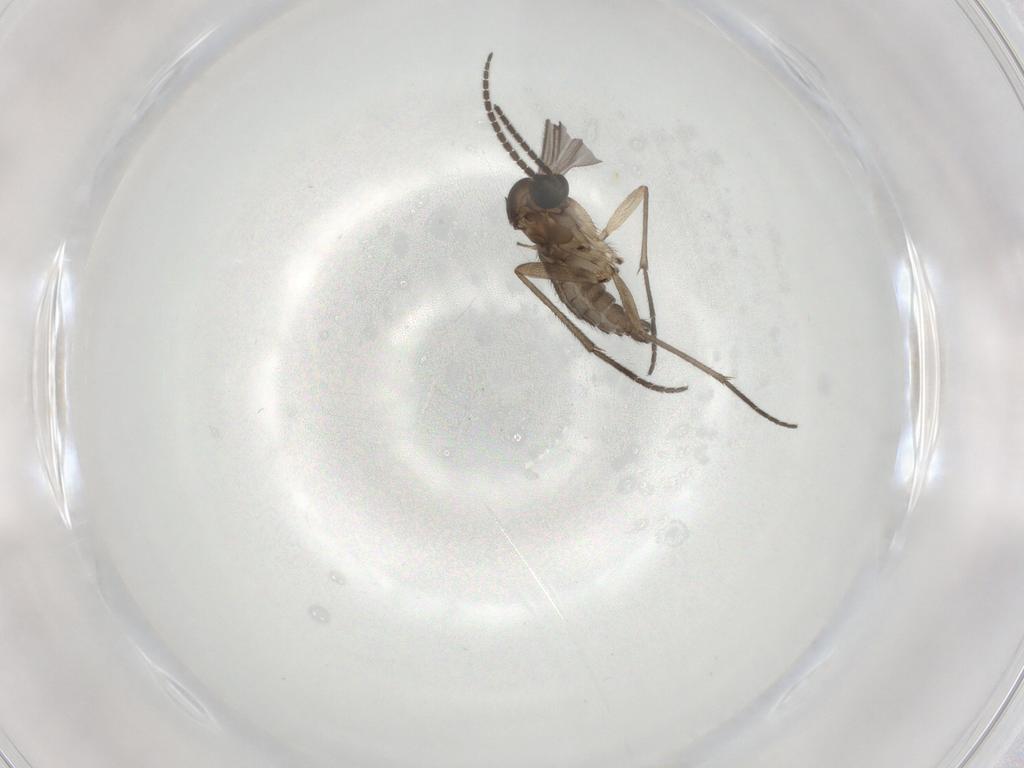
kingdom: Animalia
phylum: Arthropoda
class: Insecta
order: Diptera
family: Sciaridae
